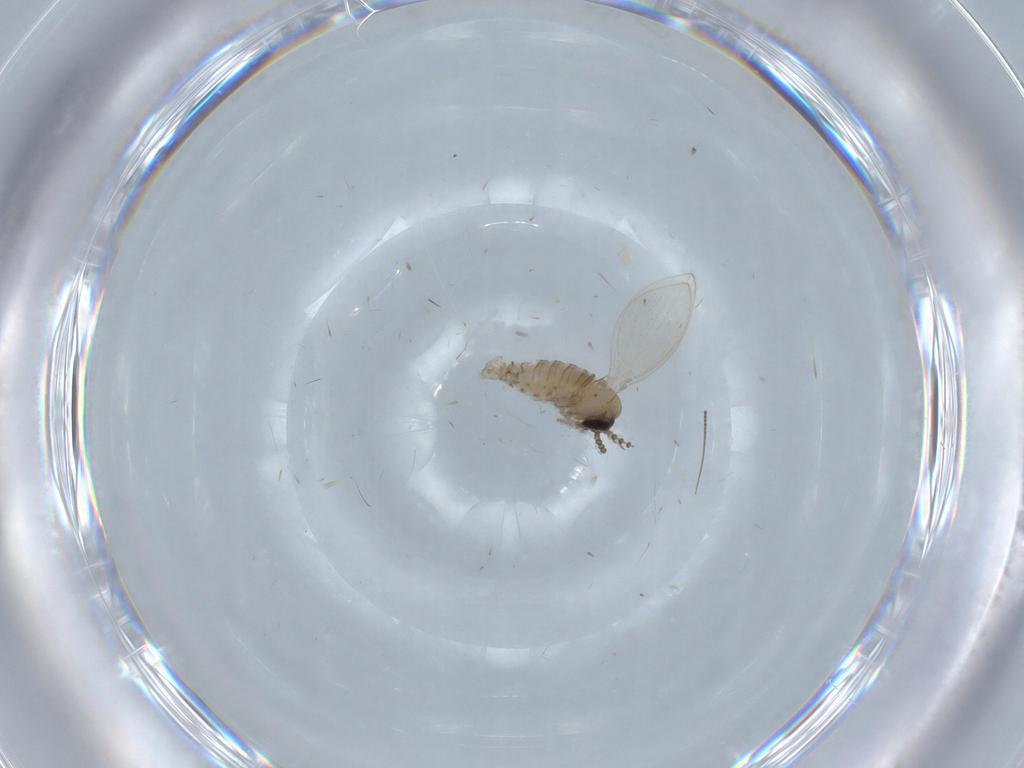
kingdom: Animalia
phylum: Arthropoda
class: Insecta
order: Diptera
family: Psychodidae
